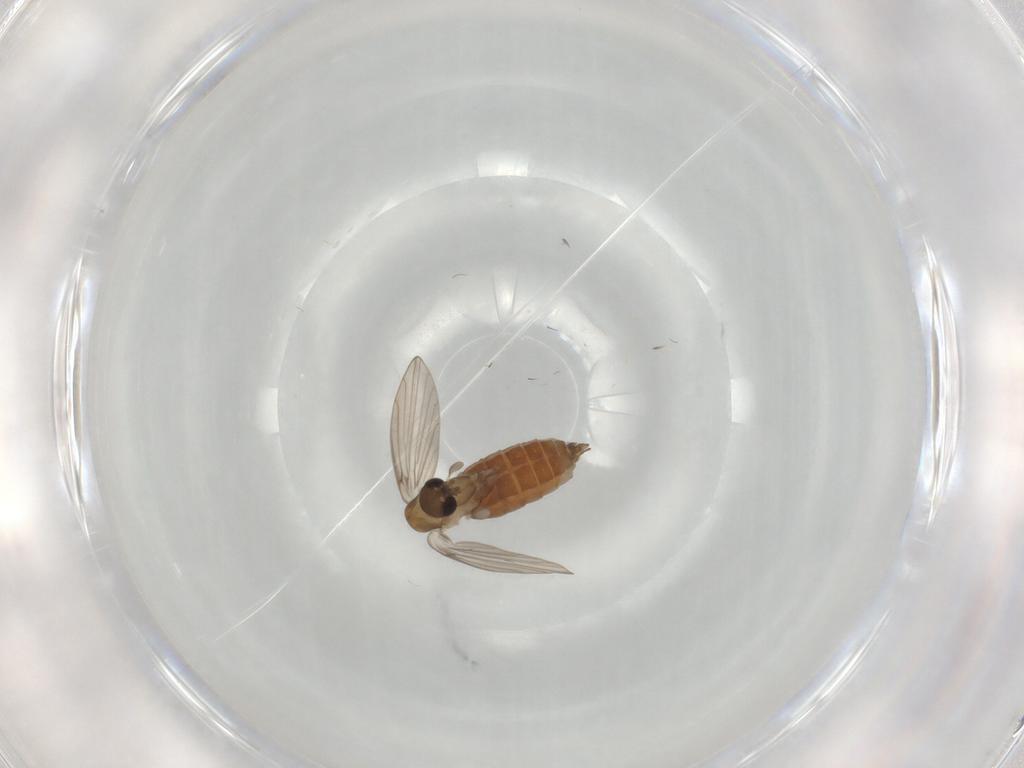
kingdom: Animalia
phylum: Arthropoda
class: Insecta
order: Diptera
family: Psychodidae
